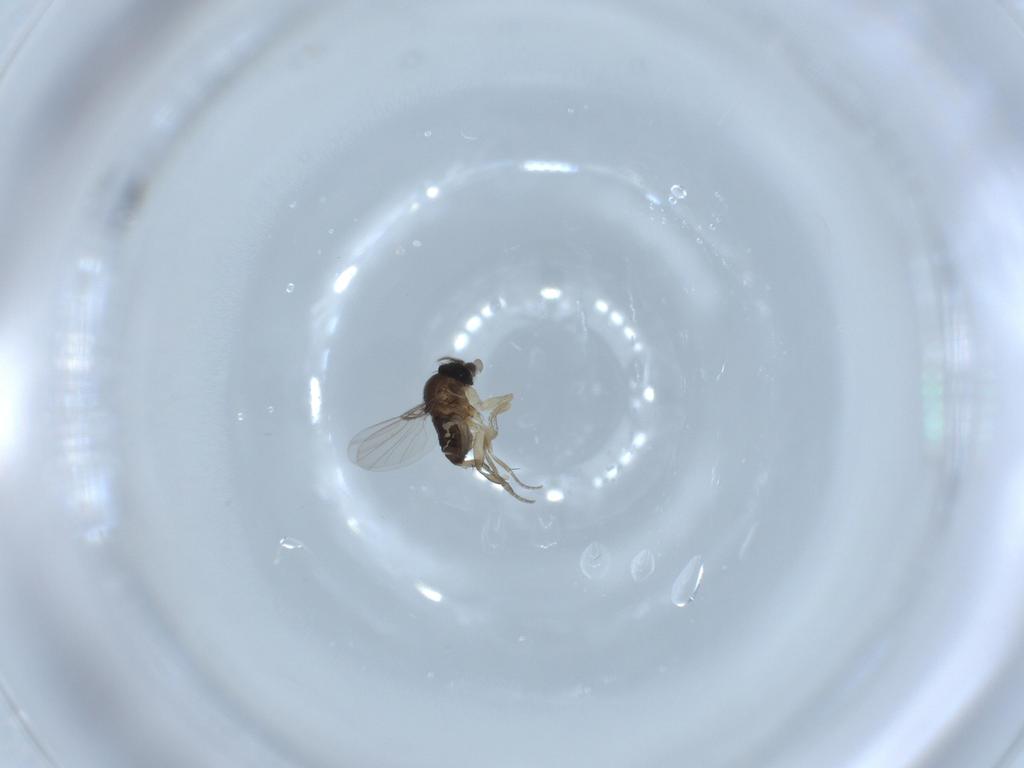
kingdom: Animalia
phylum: Arthropoda
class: Insecta
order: Diptera
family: Phoridae
